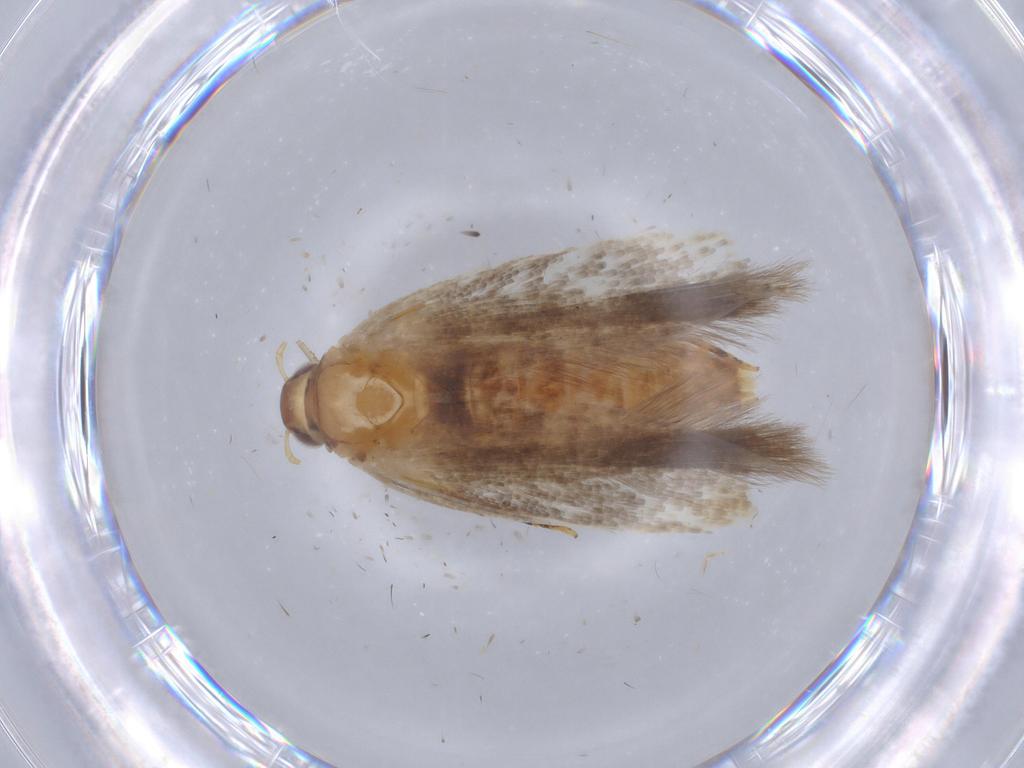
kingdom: Animalia
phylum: Arthropoda
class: Insecta
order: Lepidoptera
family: Gelechiidae
